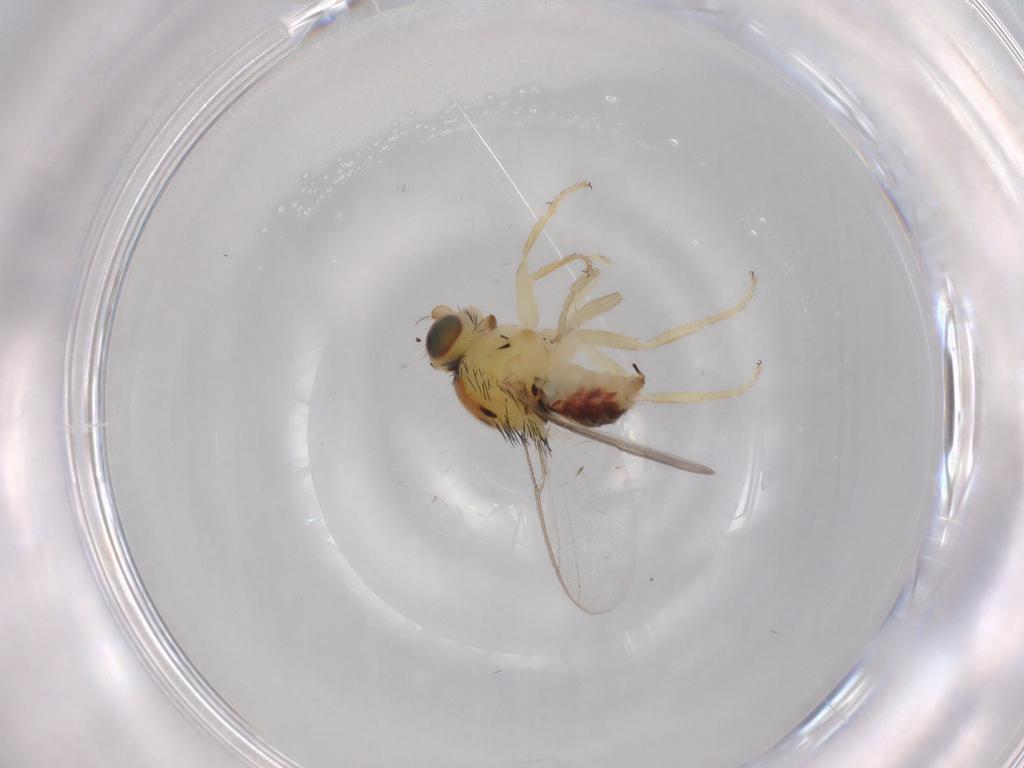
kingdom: Animalia
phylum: Arthropoda
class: Insecta
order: Diptera
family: Chloropidae
